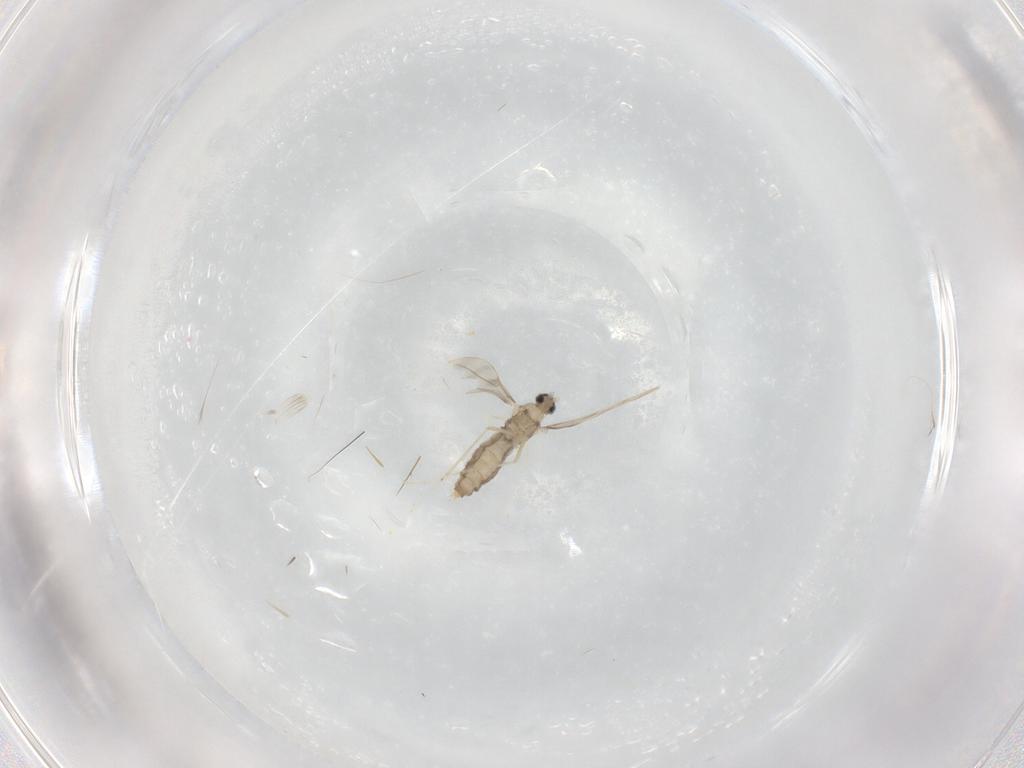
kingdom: Animalia
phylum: Arthropoda
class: Insecta
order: Diptera
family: Cecidomyiidae
